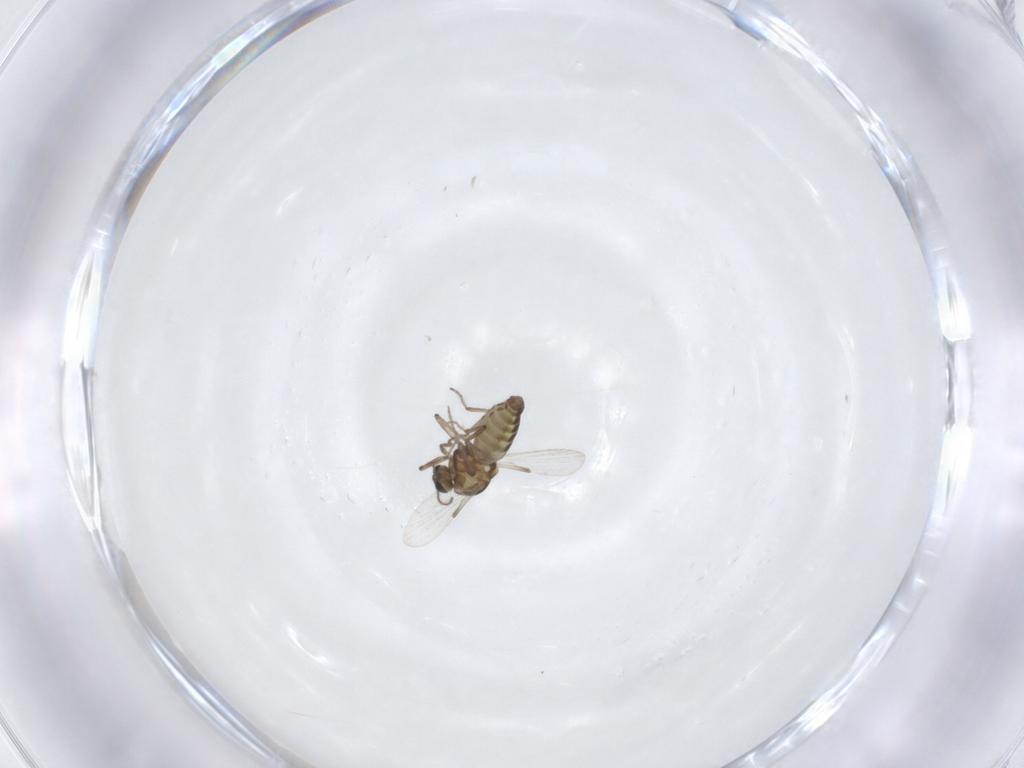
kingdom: Animalia
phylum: Arthropoda
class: Insecta
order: Diptera
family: Ceratopogonidae
